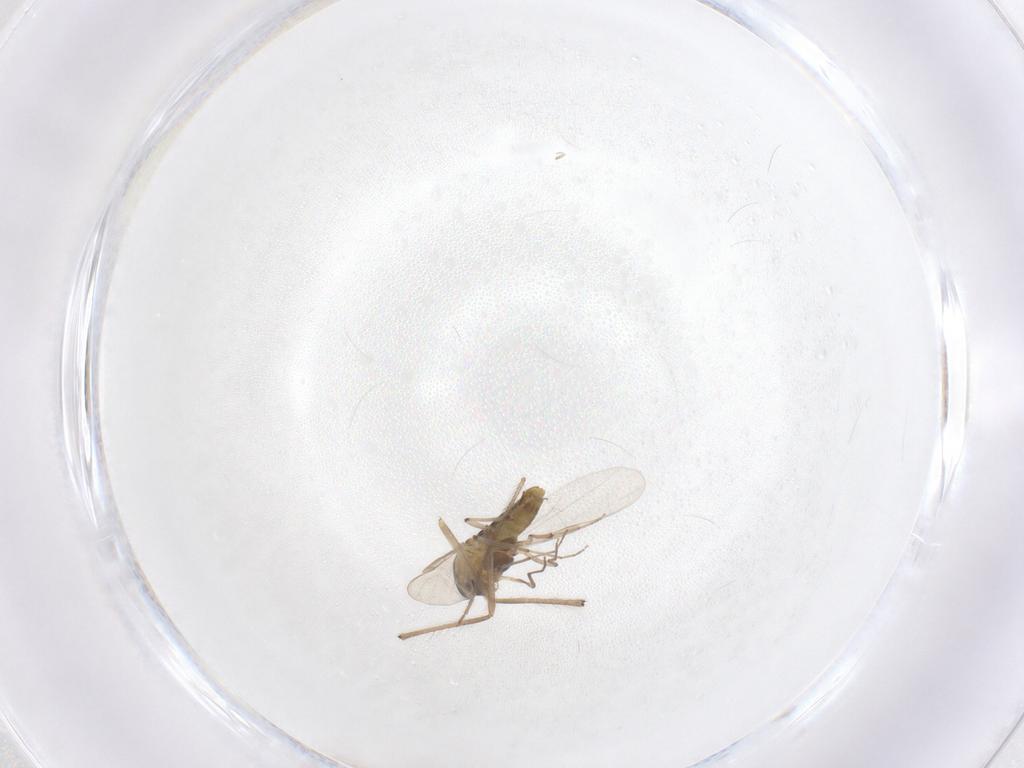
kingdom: Animalia
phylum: Arthropoda
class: Insecta
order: Diptera
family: Chironomidae
